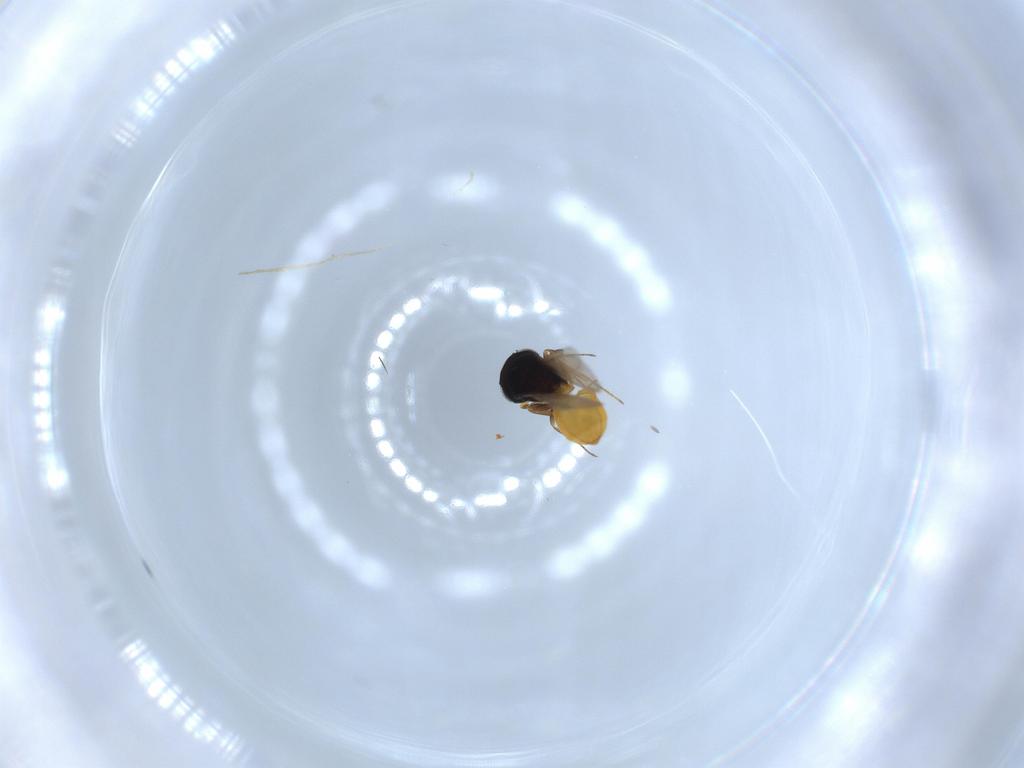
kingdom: Animalia
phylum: Arthropoda
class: Insecta
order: Hymenoptera
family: Scelionidae
